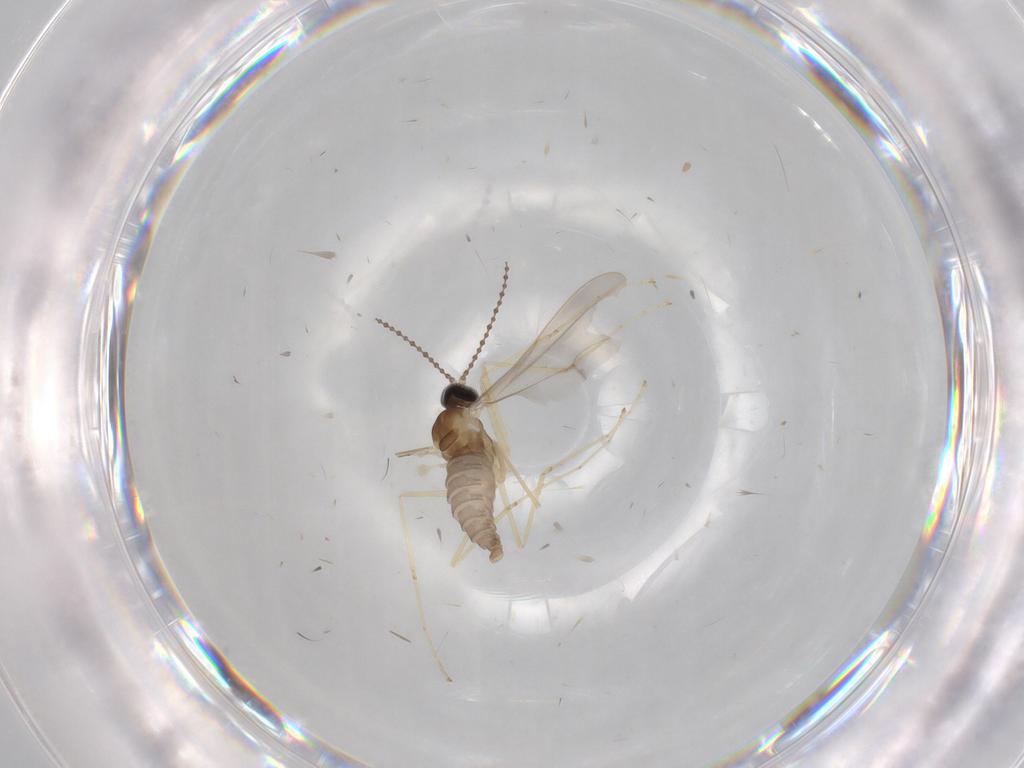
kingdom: Animalia
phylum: Arthropoda
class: Insecta
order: Diptera
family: Cecidomyiidae
